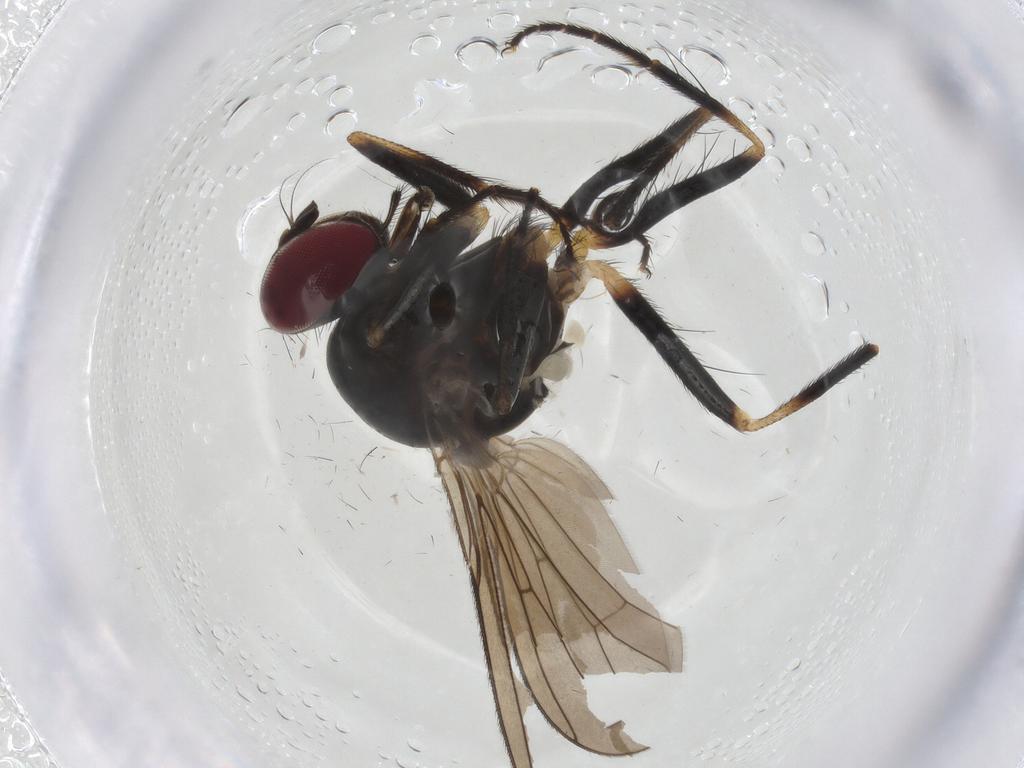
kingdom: Animalia
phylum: Arthropoda
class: Insecta
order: Diptera
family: Anthomyiidae
